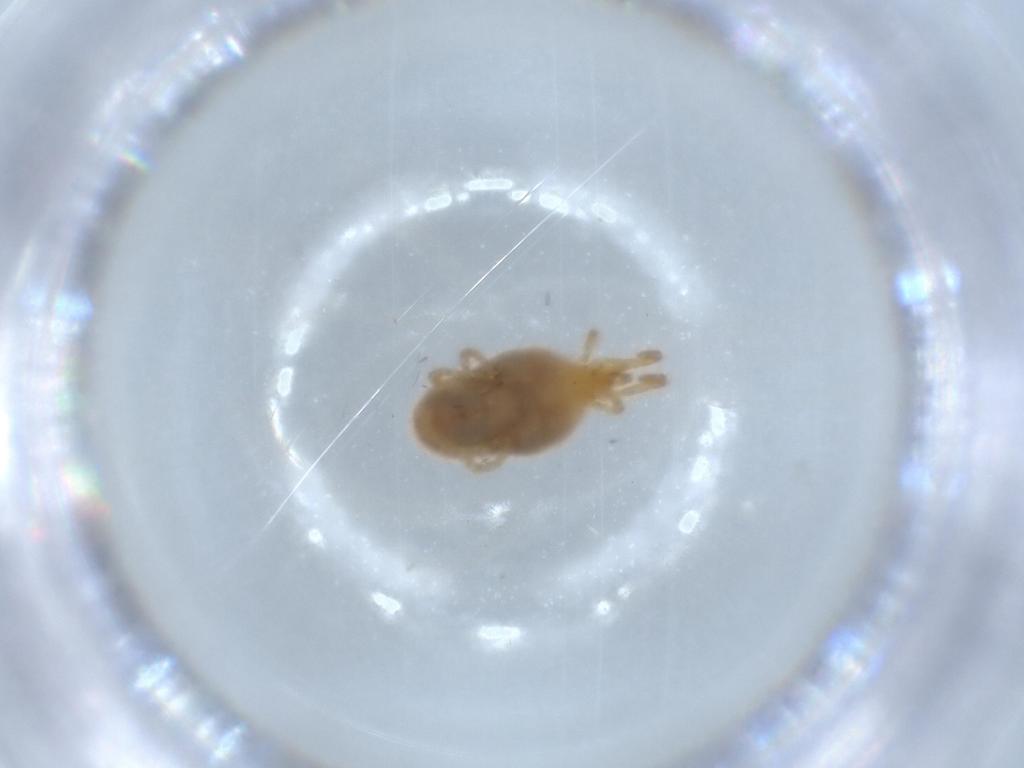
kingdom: Animalia
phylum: Arthropoda
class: Arachnida
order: Trombidiformes
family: Trombidiidae
